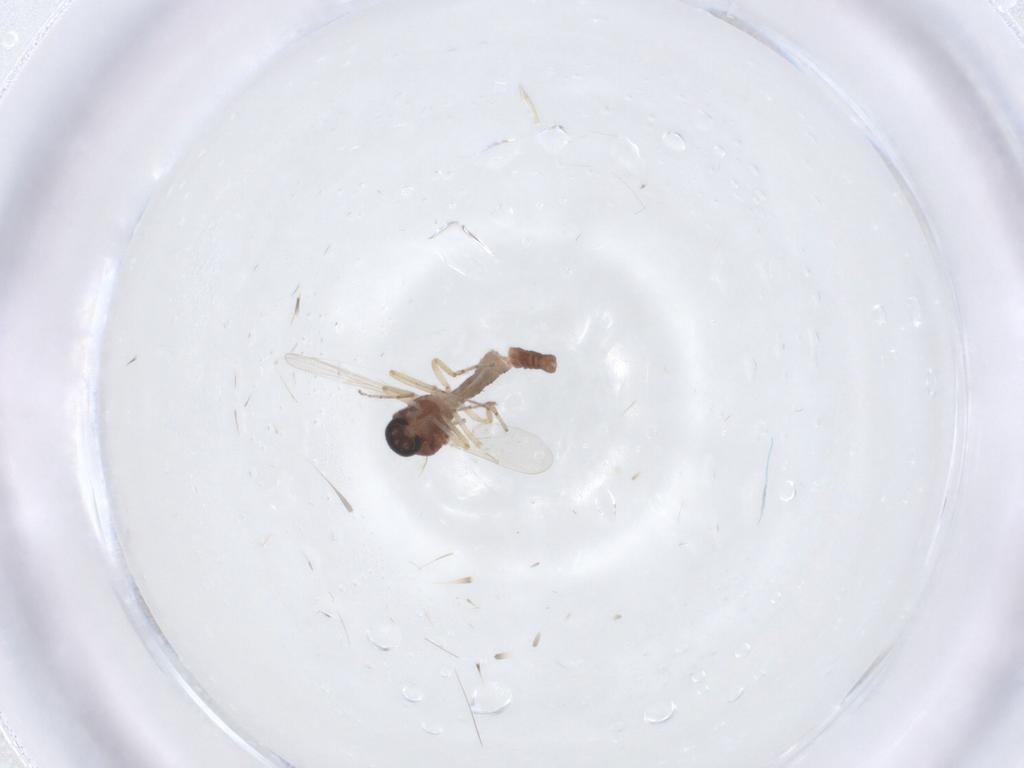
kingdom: Animalia
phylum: Arthropoda
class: Insecta
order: Diptera
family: Ceratopogonidae
